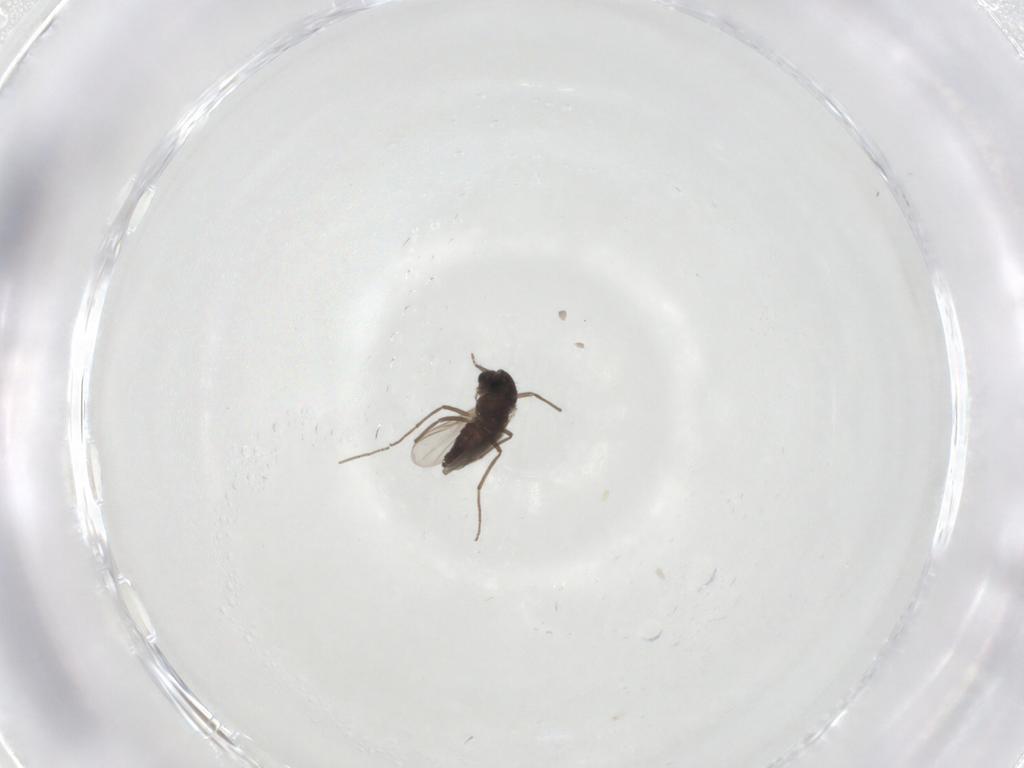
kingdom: Animalia
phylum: Arthropoda
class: Insecta
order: Diptera
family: Chironomidae
